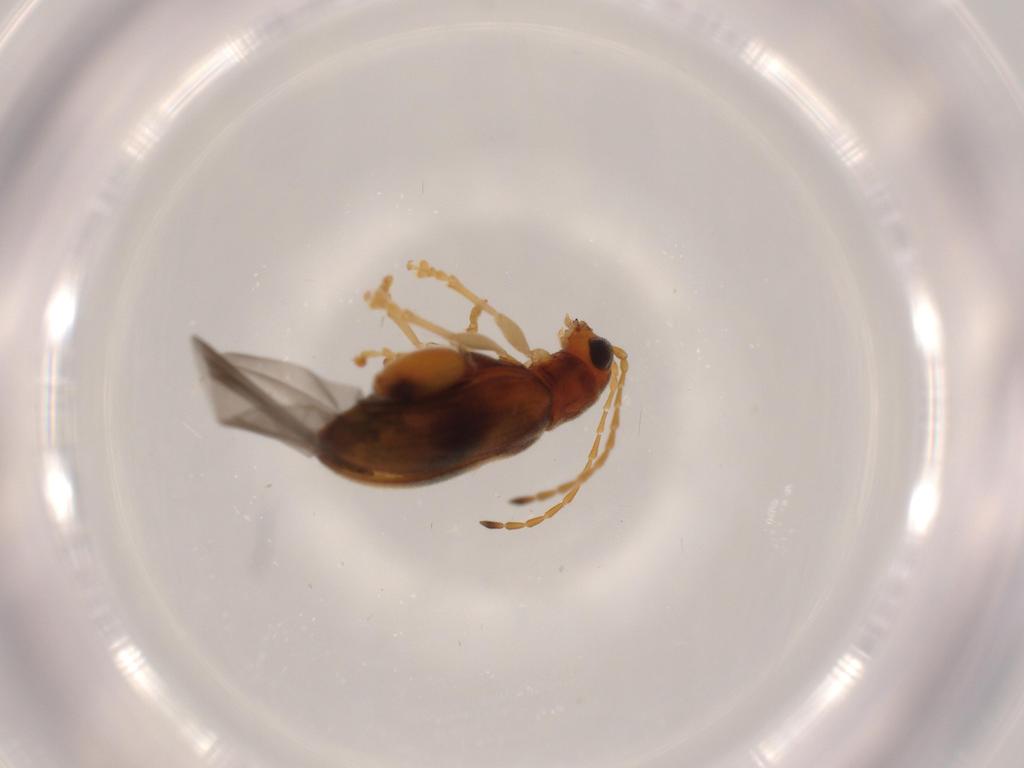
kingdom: Animalia
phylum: Arthropoda
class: Insecta
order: Coleoptera
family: Chrysomelidae
